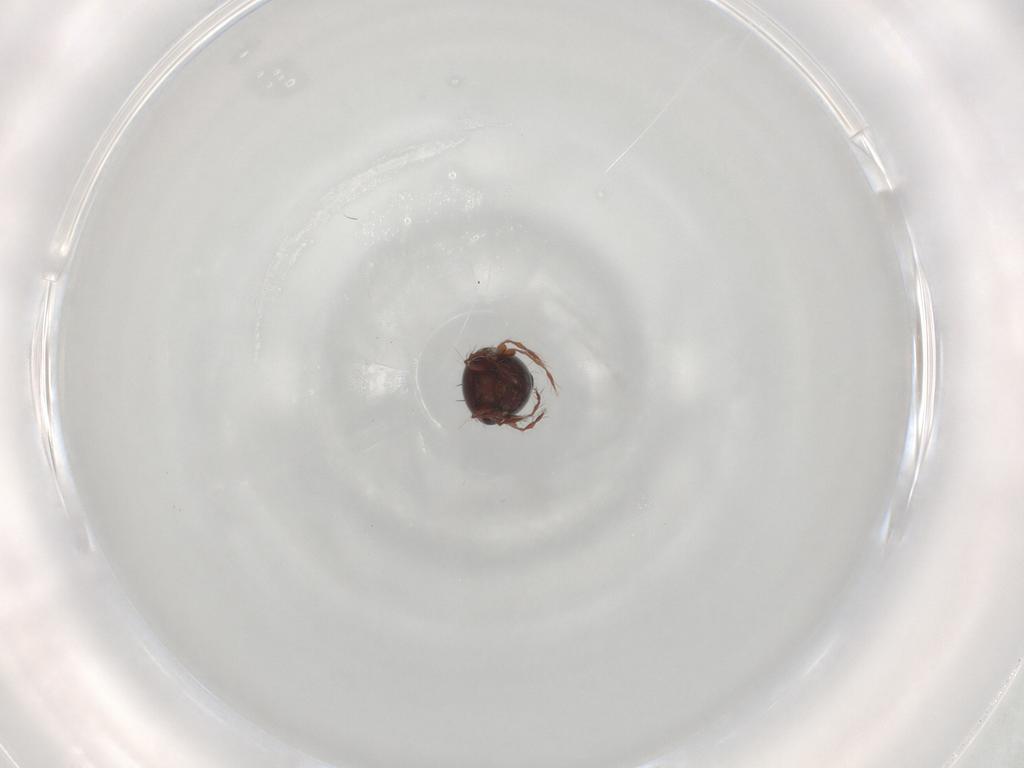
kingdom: Animalia
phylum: Arthropoda
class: Arachnida
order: Sarcoptiformes
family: Ceratoppiidae
